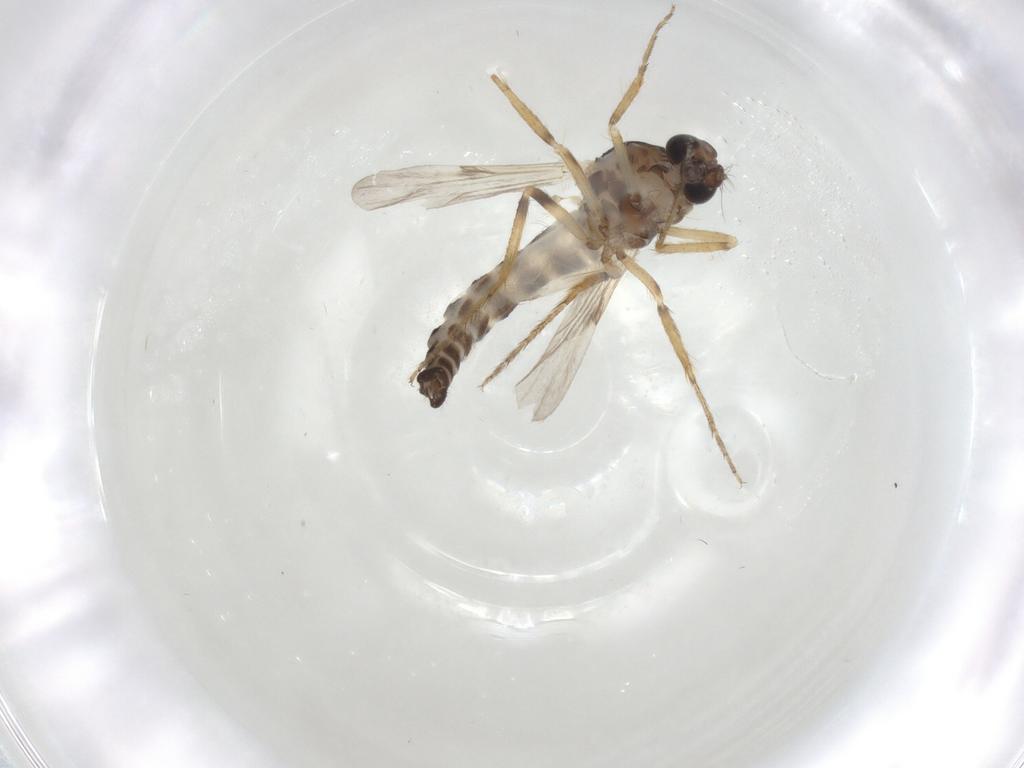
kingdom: Animalia
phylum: Arthropoda
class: Insecta
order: Diptera
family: Ceratopogonidae
